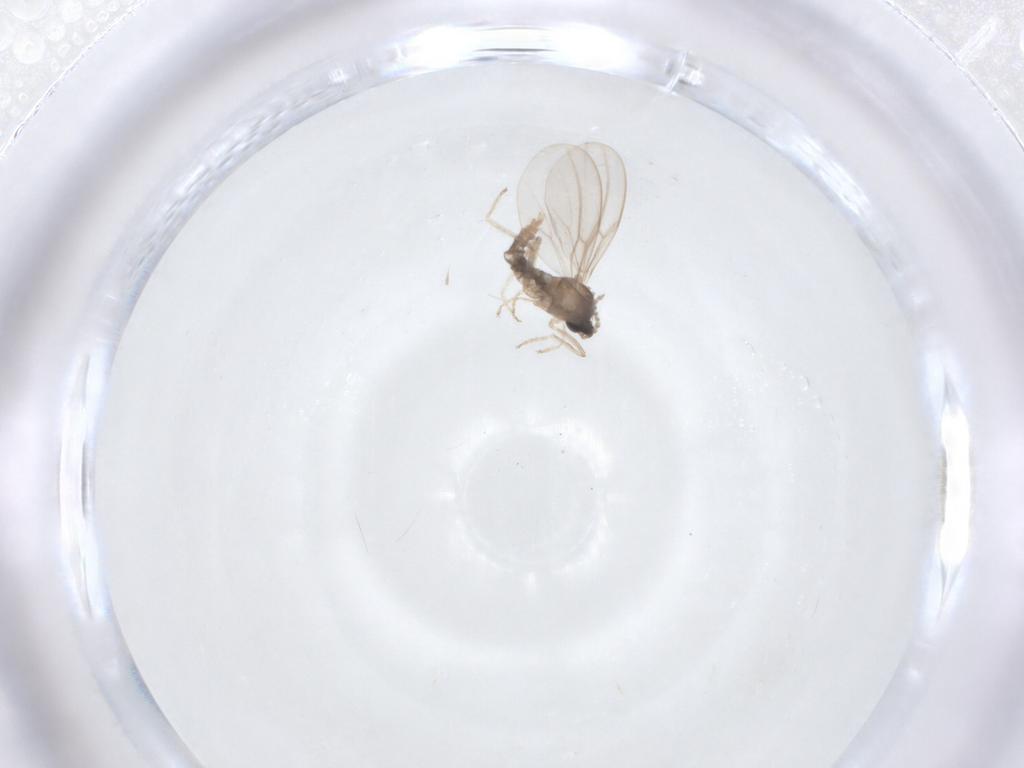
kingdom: Animalia
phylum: Arthropoda
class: Insecta
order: Diptera
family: Cecidomyiidae
